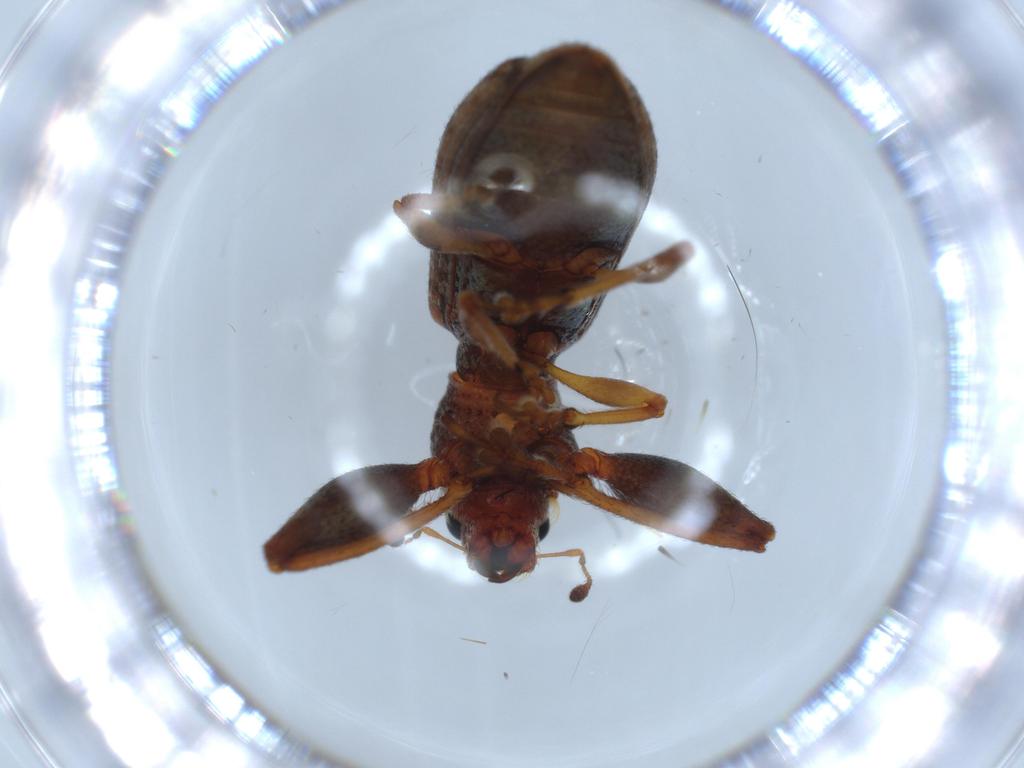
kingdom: Animalia
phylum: Arthropoda
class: Insecta
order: Coleoptera
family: Curculionidae
